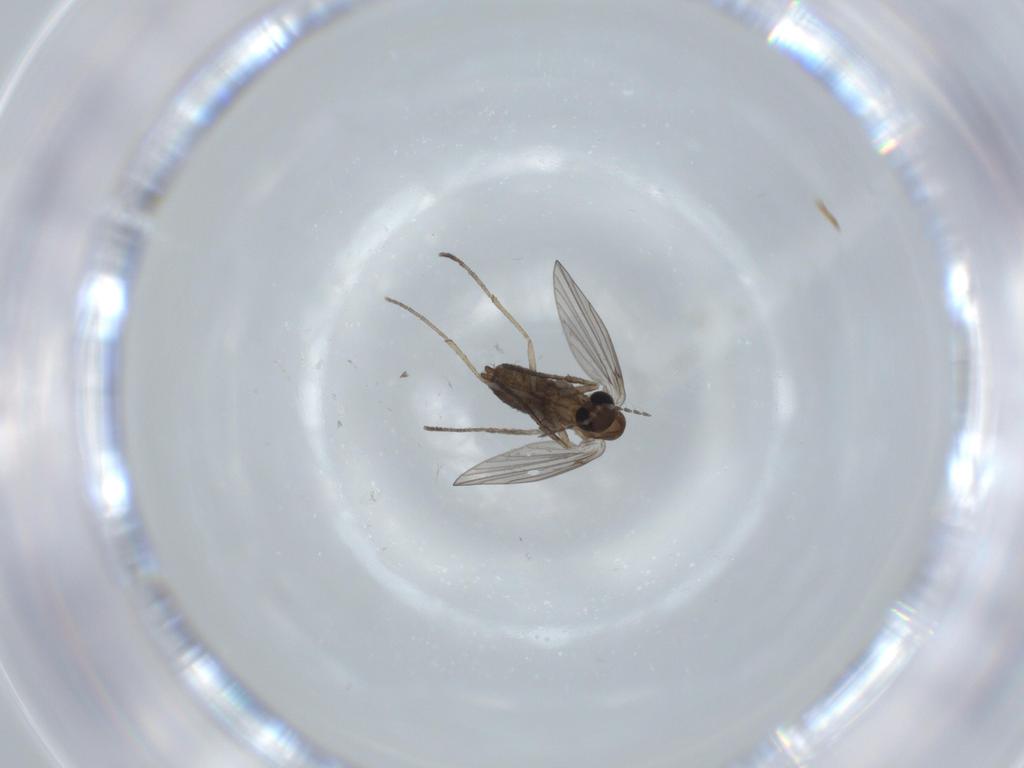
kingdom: Animalia
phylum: Arthropoda
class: Insecta
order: Diptera
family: Psychodidae
